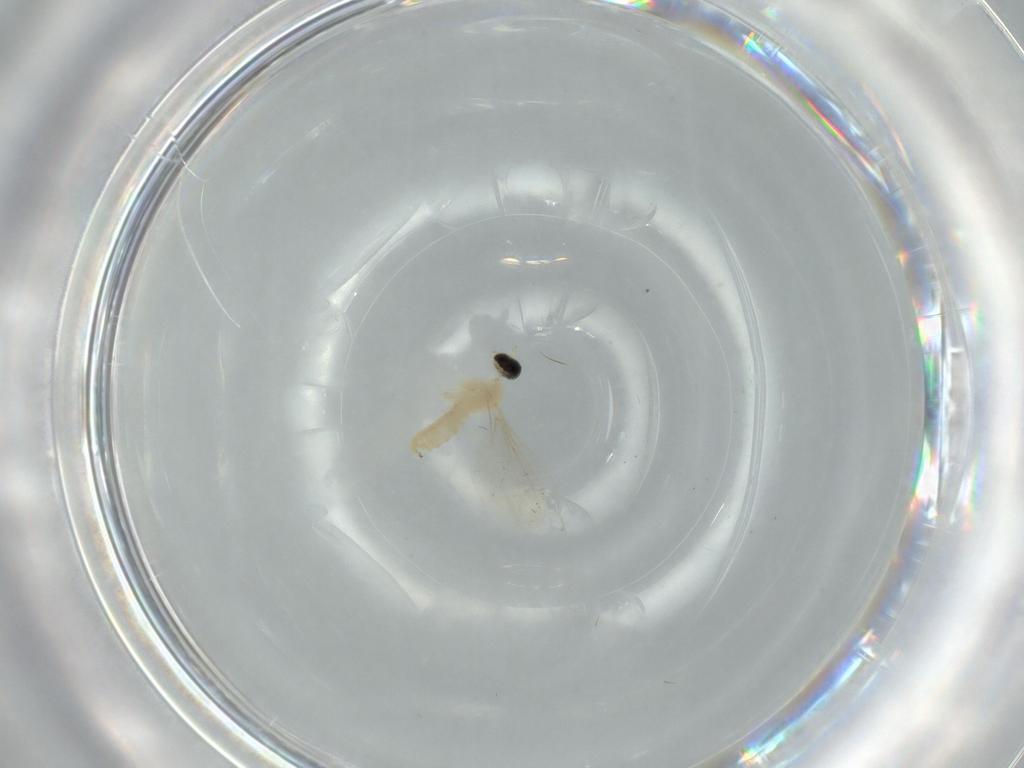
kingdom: Animalia
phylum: Arthropoda
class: Insecta
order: Diptera
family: Cecidomyiidae
